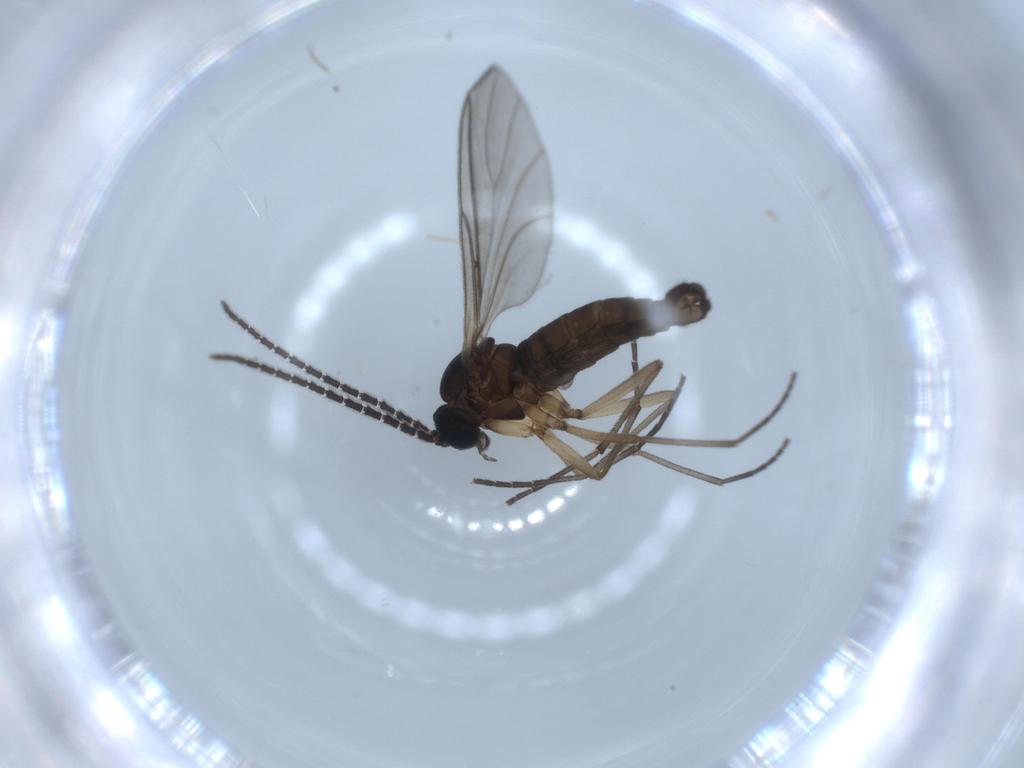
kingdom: Animalia
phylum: Arthropoda
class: Insecta
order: Diptera
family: Sciaridae
